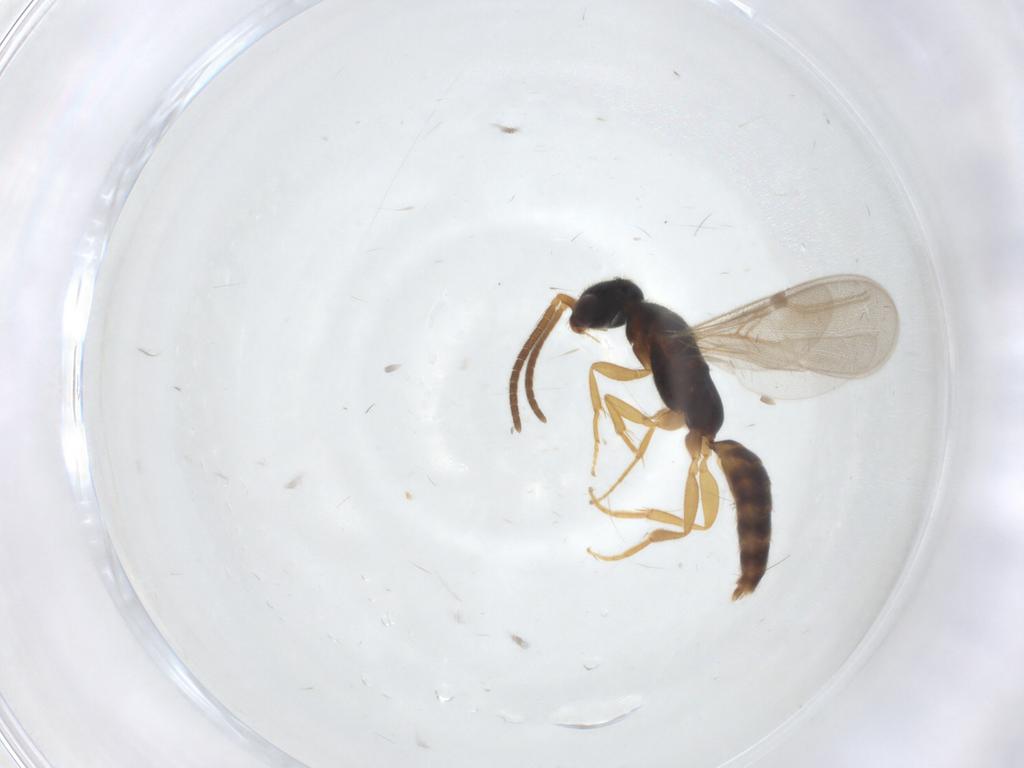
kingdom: Animalia
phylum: Arthropoda
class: Insecta
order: Hymenoptera
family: Bethylidae
